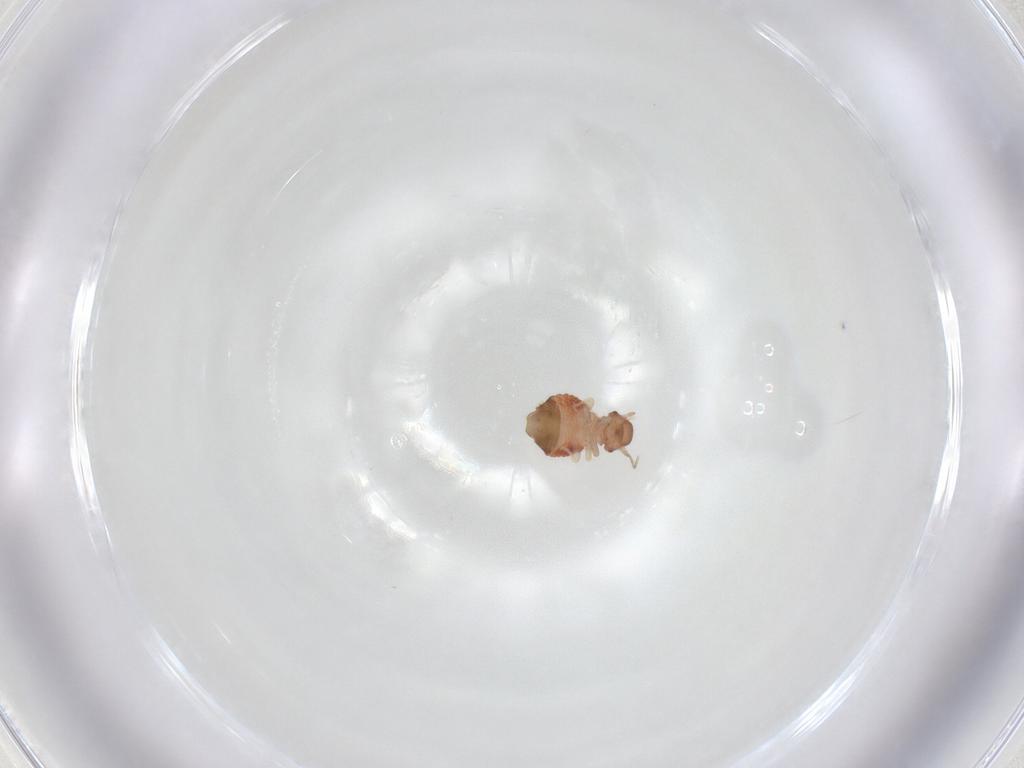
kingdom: Animalia
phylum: Arthropoda
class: Insecta
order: Psocodea
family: Archipsocidae
